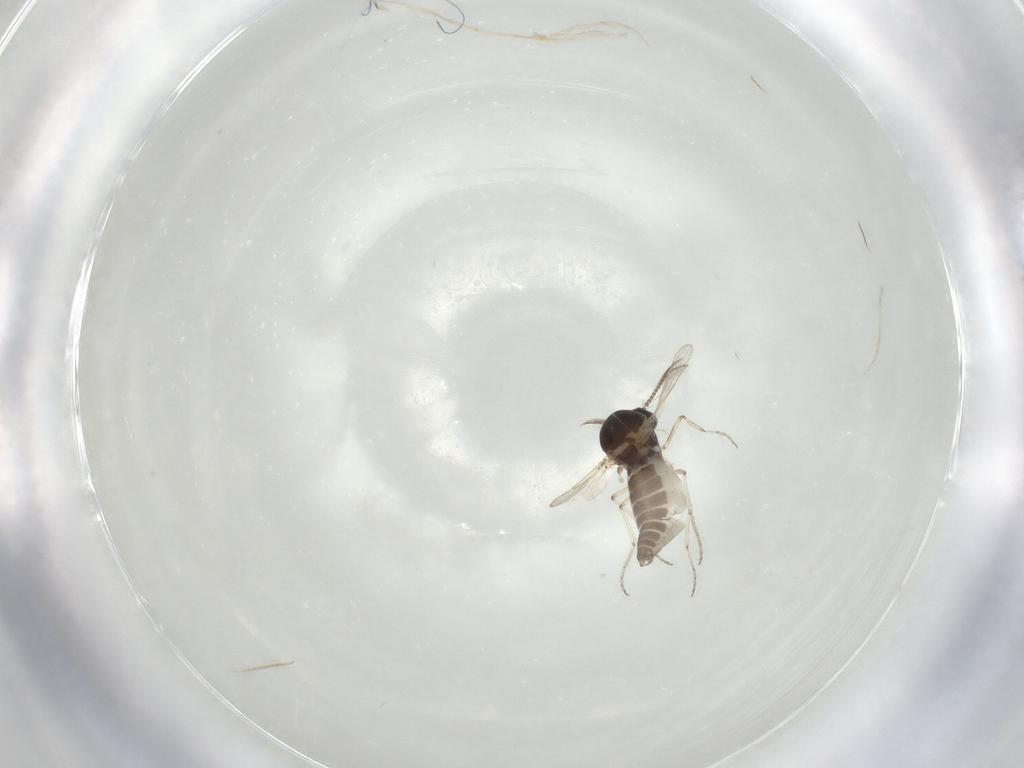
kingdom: Animalia
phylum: Arthropoda
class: Insecta
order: Diptera
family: Ceratopogonidae
